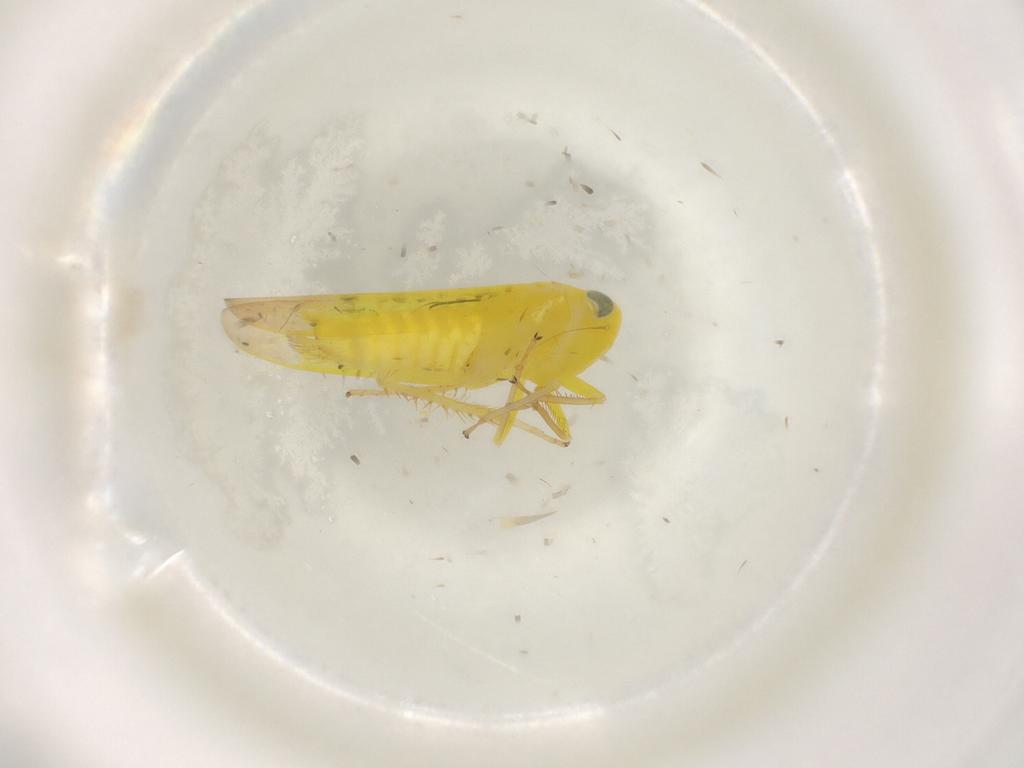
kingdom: Animalia
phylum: Arthropoda
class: Insecta
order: Hemiptera
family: Cicadellidae
